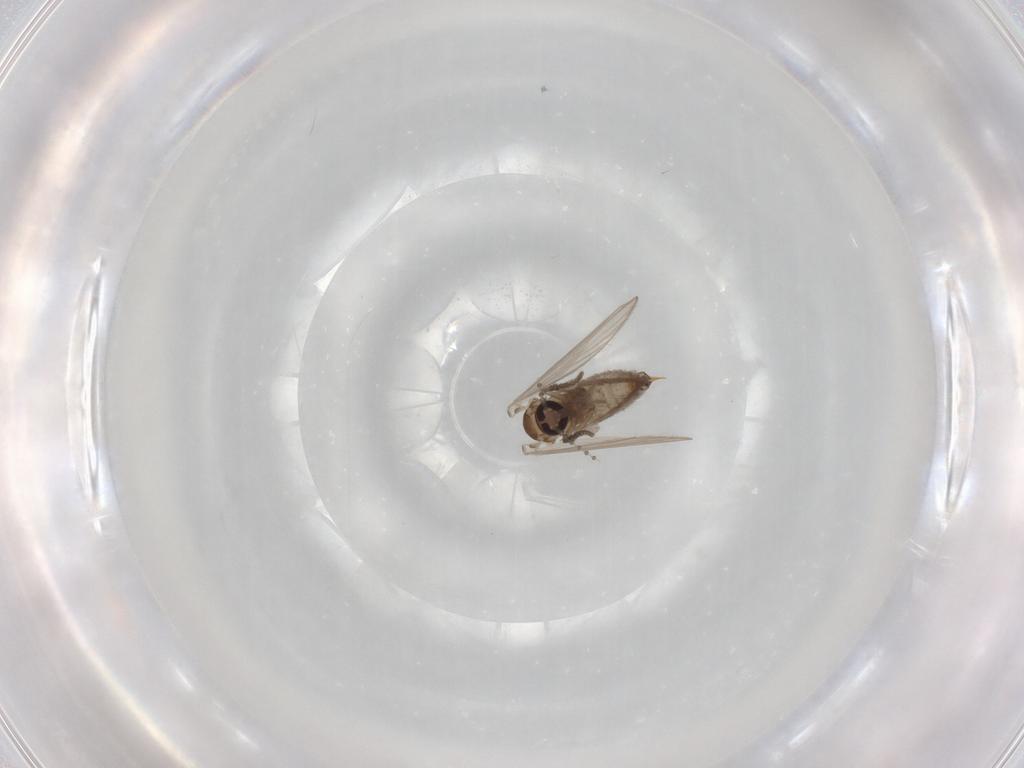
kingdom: Animalia
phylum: Arthropoda
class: Insecta
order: Diptera
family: Psychodidae
